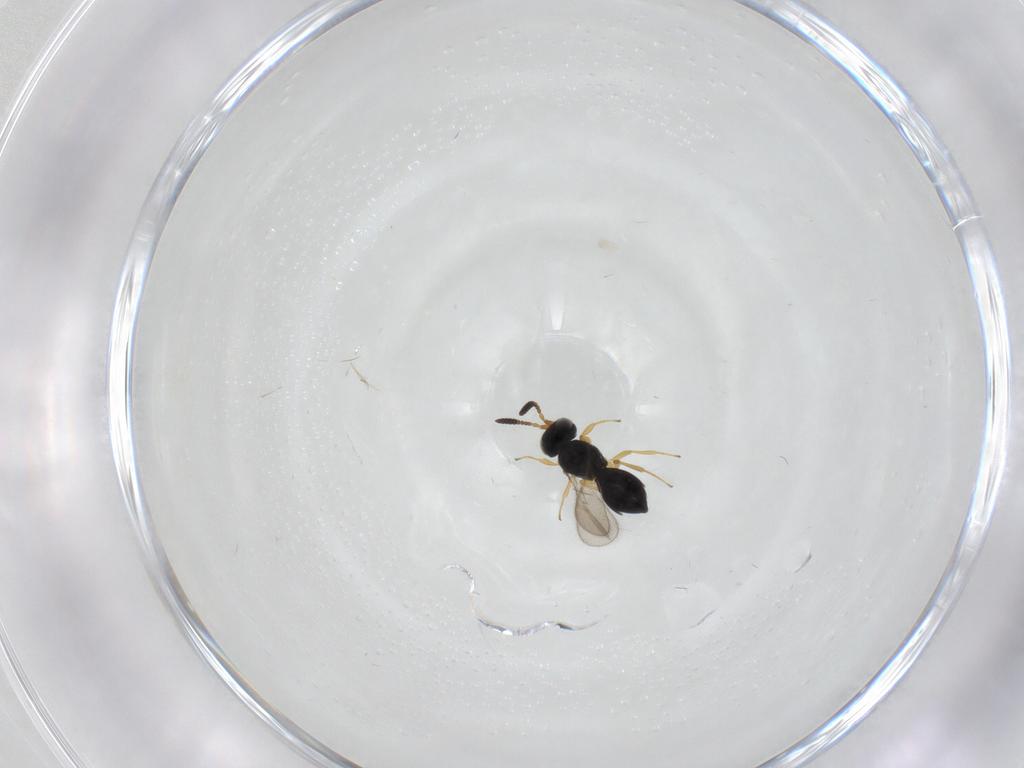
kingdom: Animalia
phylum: Arthropoda
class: Insecta
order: Hymenoptera
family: Scelionidae
